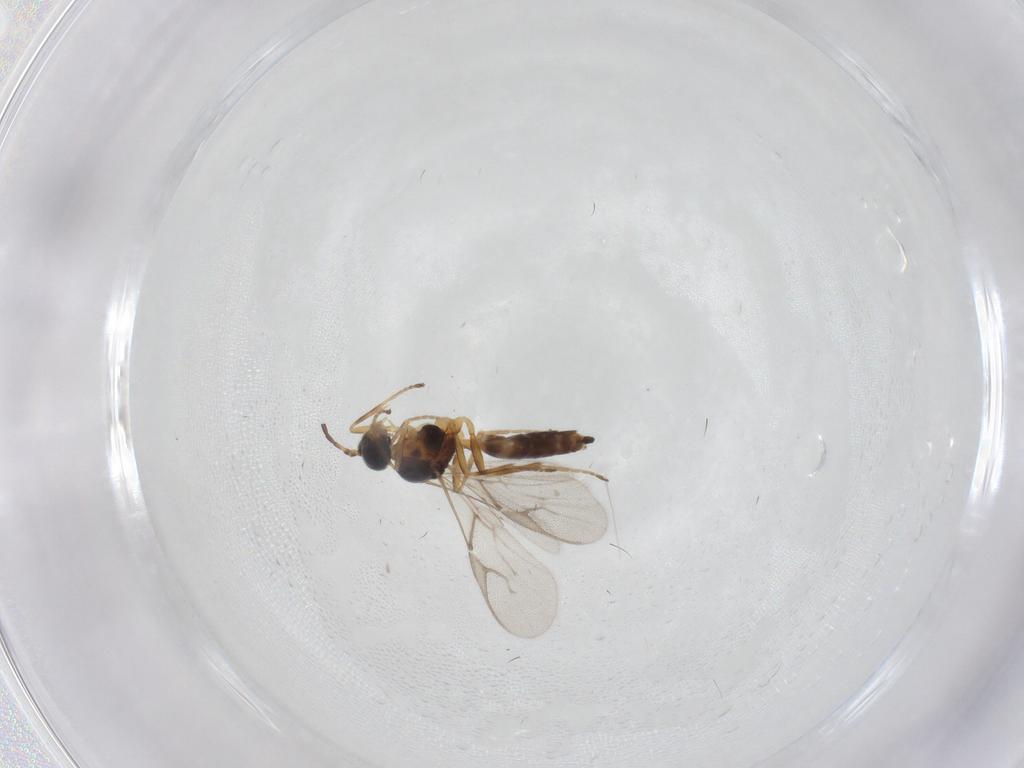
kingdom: Animalia
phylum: Arthropoda
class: Insecta
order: Hymenoptera
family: Braconidae
